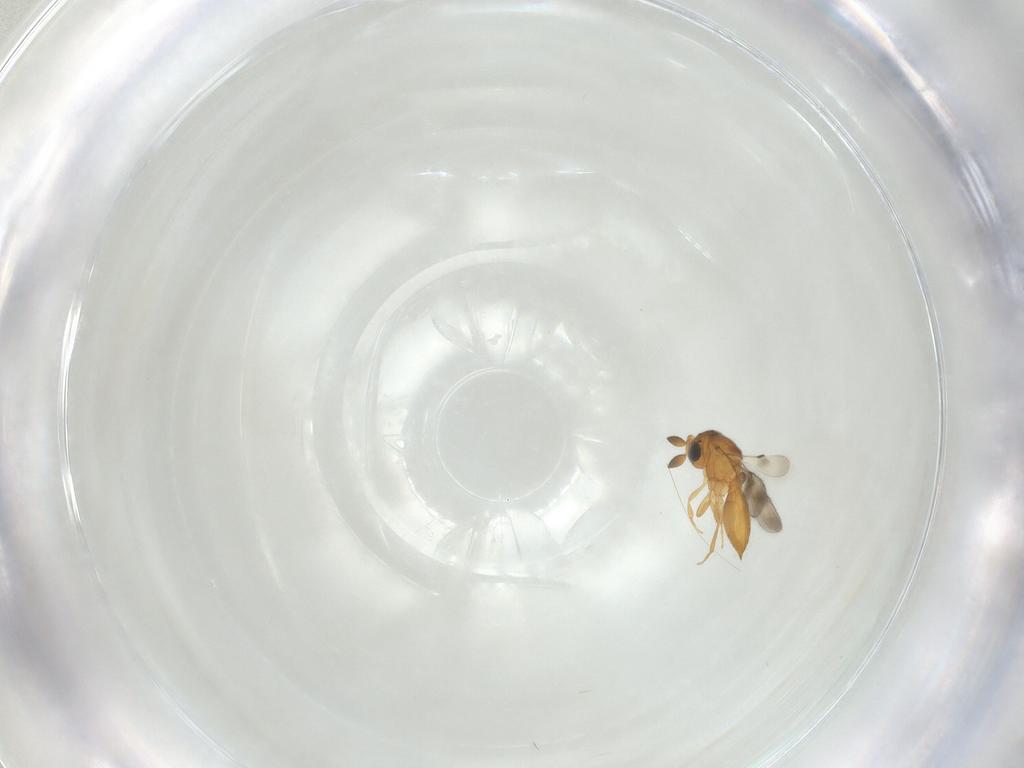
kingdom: Animalia
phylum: Arthropoda
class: Insecta
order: Hymenoptera
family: Scelionidae
